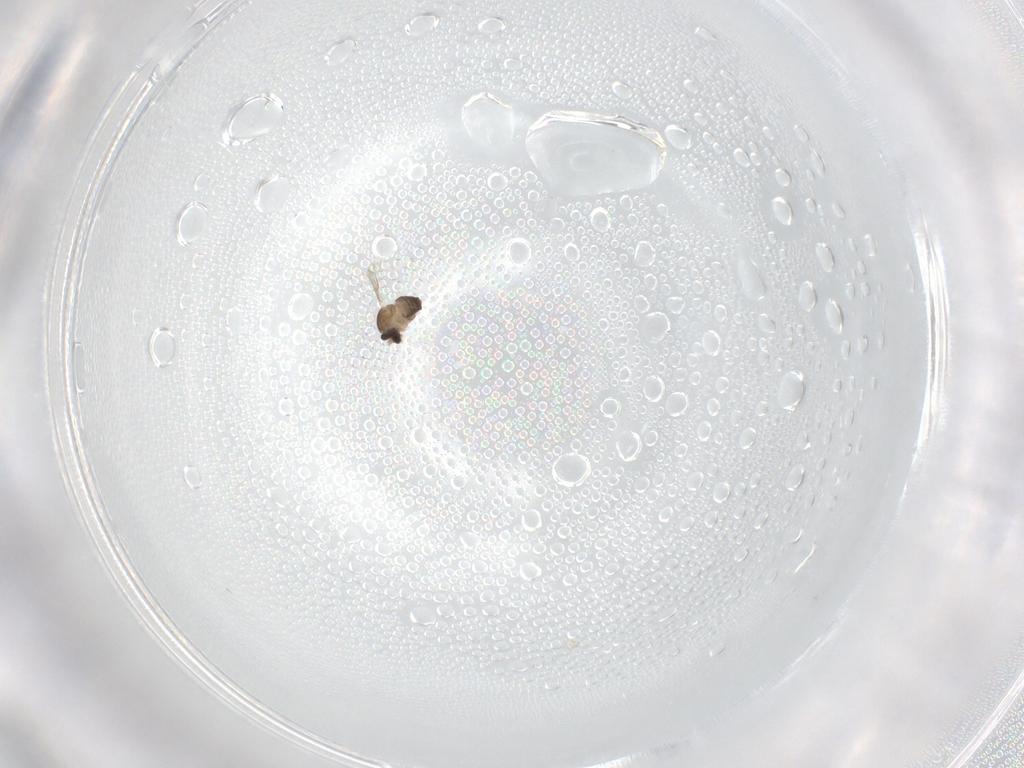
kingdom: Animalia
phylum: Arthropoda
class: Insecta
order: Diptera
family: Cecidomyiidae
